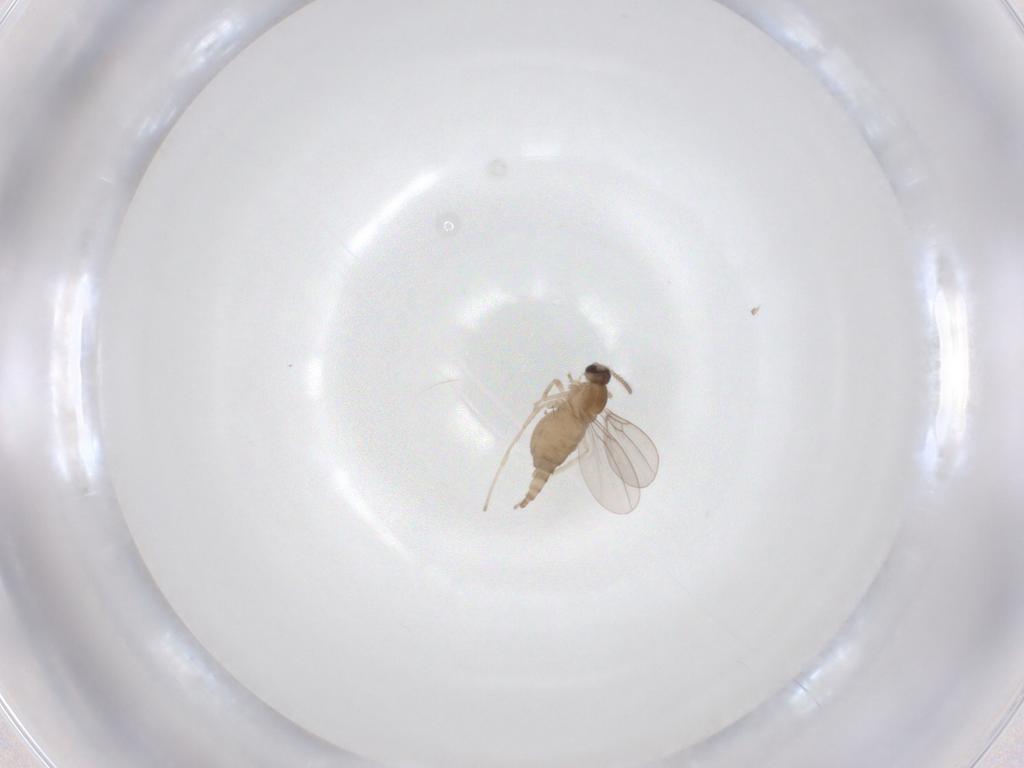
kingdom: Animalia
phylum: Arthropoda
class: Insecta
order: Diptera
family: Cecidomyiidae
